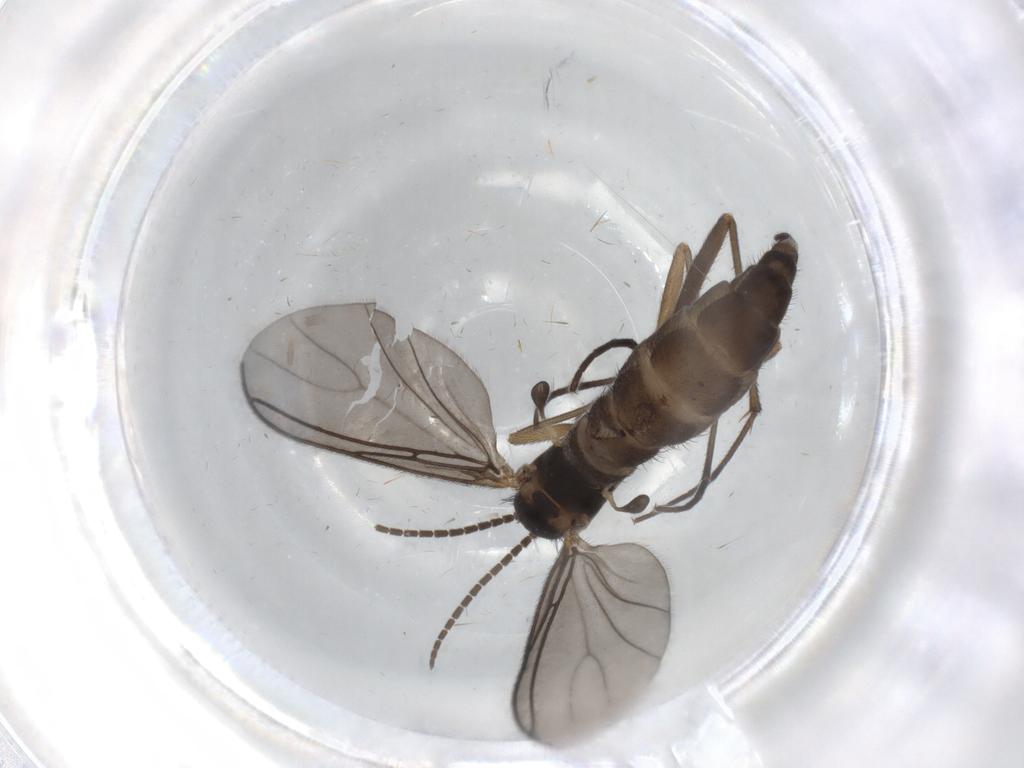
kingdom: Animalia
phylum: Arthropoda
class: Insecta
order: Diptera
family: Sciaridae
